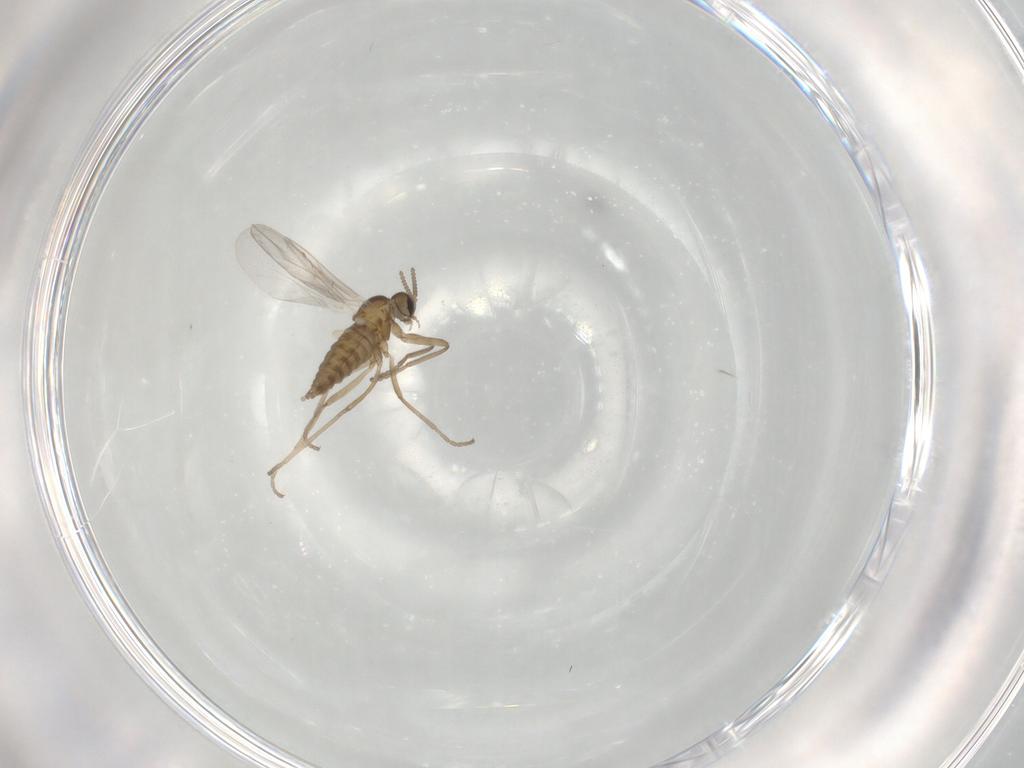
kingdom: Animalia
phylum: Arthropoda
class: Insecta
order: Diptera
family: Cecidomyiidae
